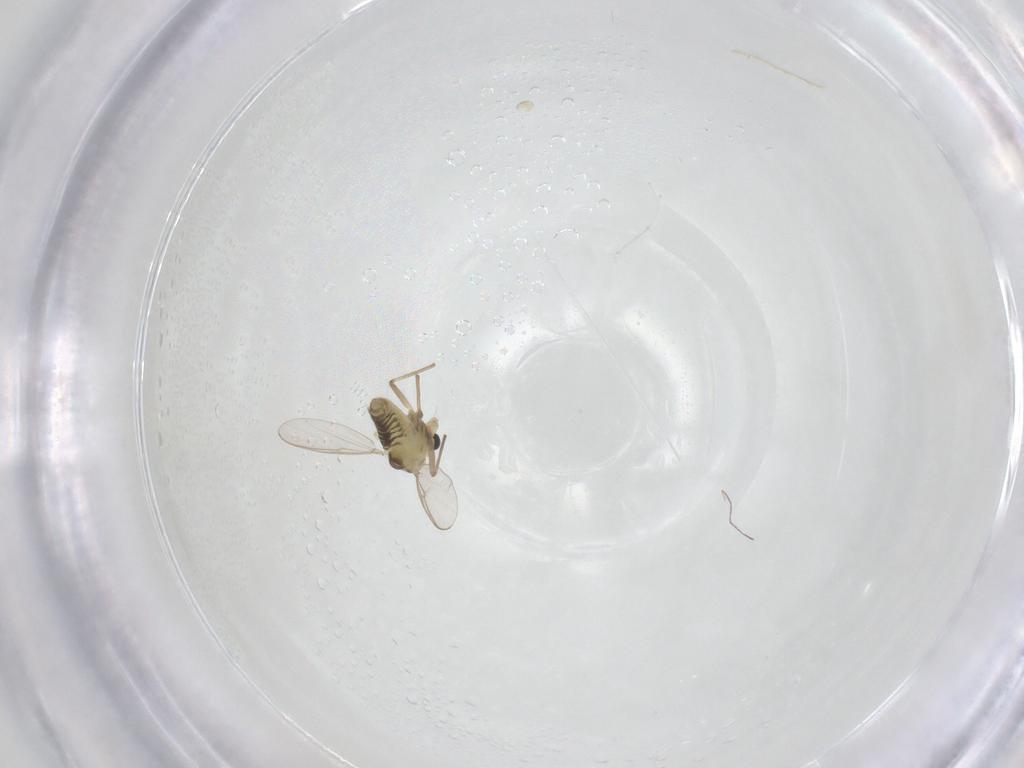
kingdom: Animalia
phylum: Arthropoda
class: Insecta
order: Diptera
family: Chironomidae
